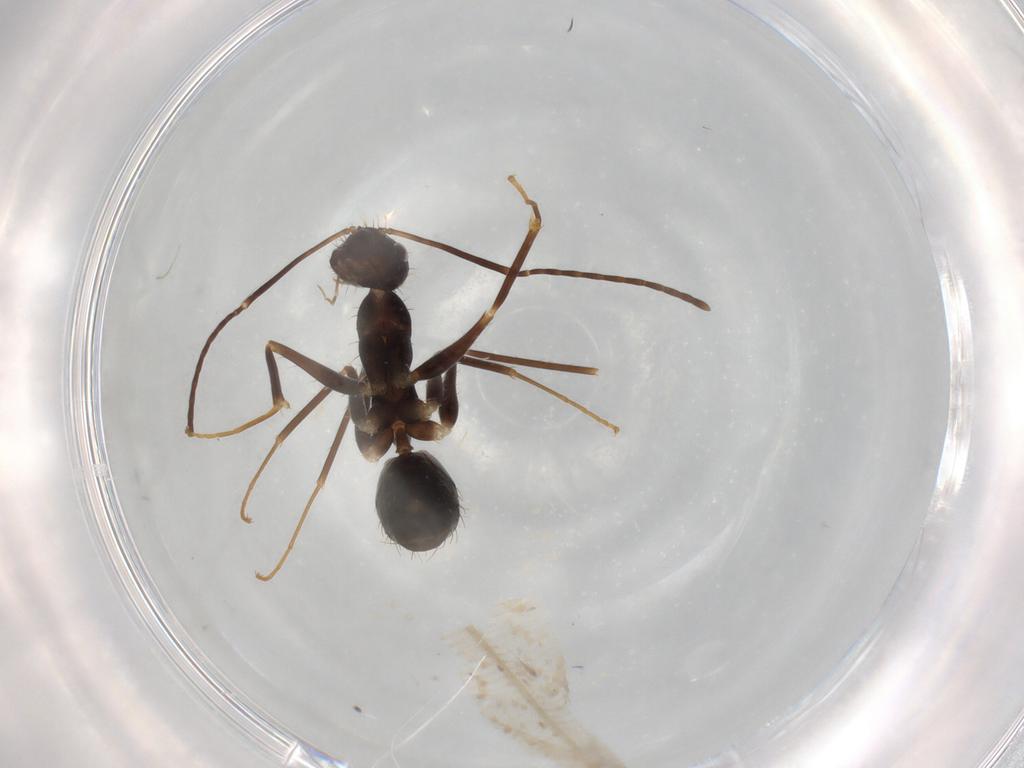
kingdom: Animalia
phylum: Arthropoda
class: Insecta
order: Hymenoptera
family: Formicidae
